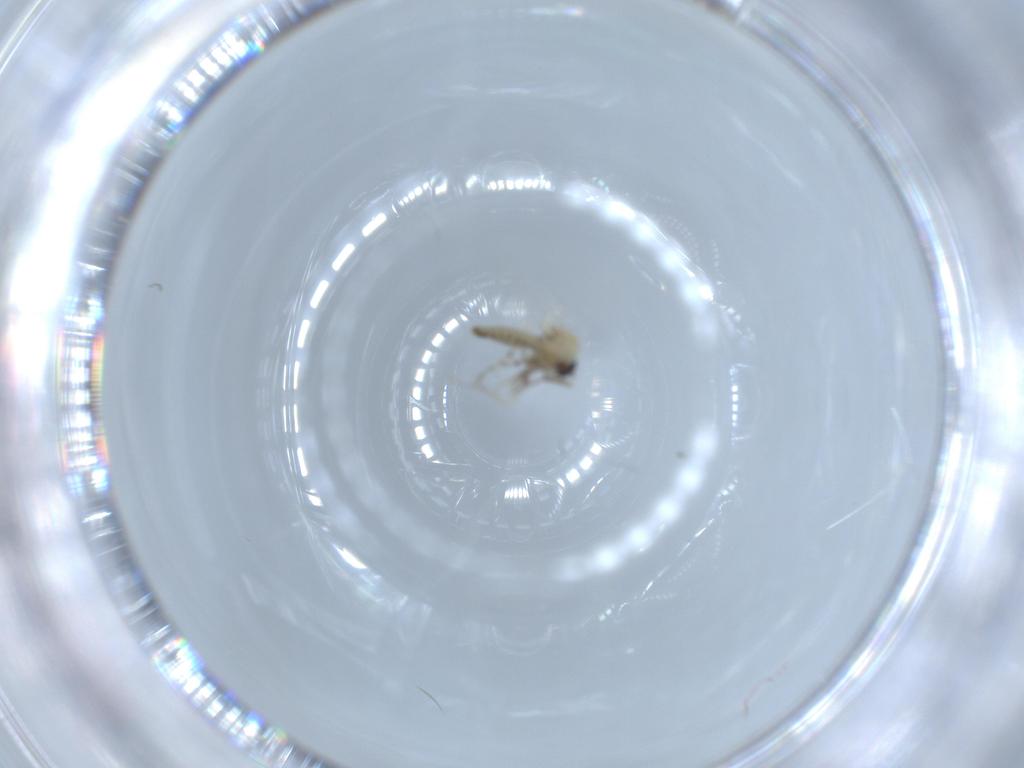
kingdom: Animalia
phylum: Arthropoda
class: Insecta
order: Diptera
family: Ceratopogonidae
